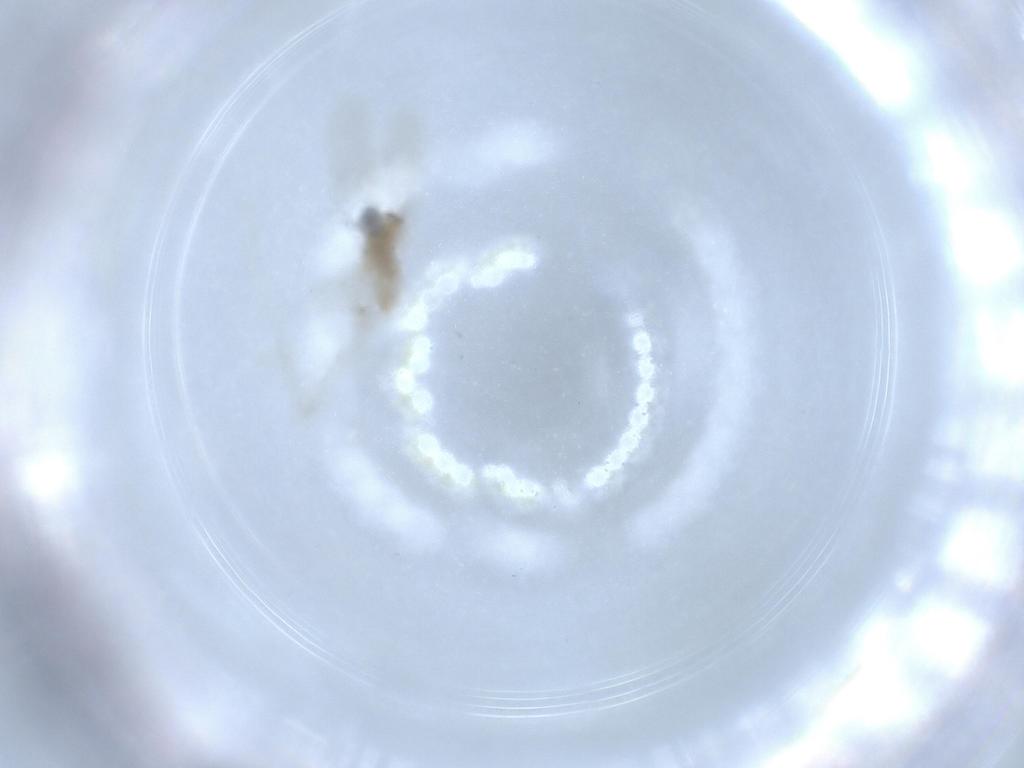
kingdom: Animalia
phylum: Arthropoda
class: Insecta
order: Diptera
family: Cecidomyiidae
